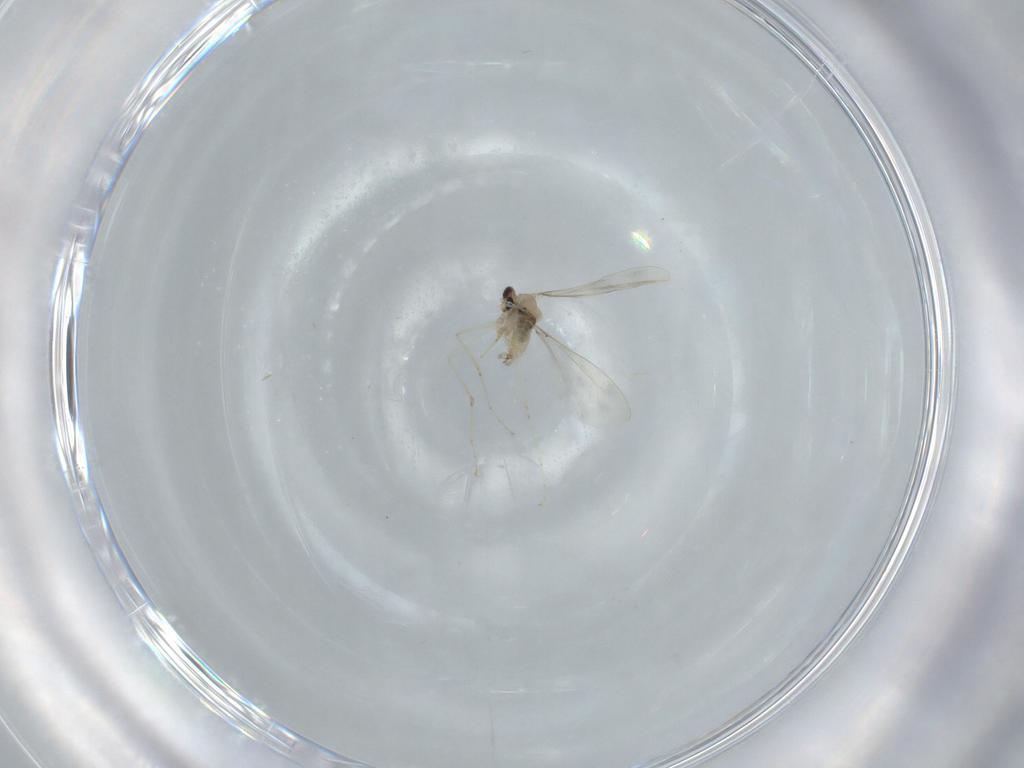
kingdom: Animalia
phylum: Arthropoda
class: Insecta
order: Diptera
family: Cecidomyiidae
